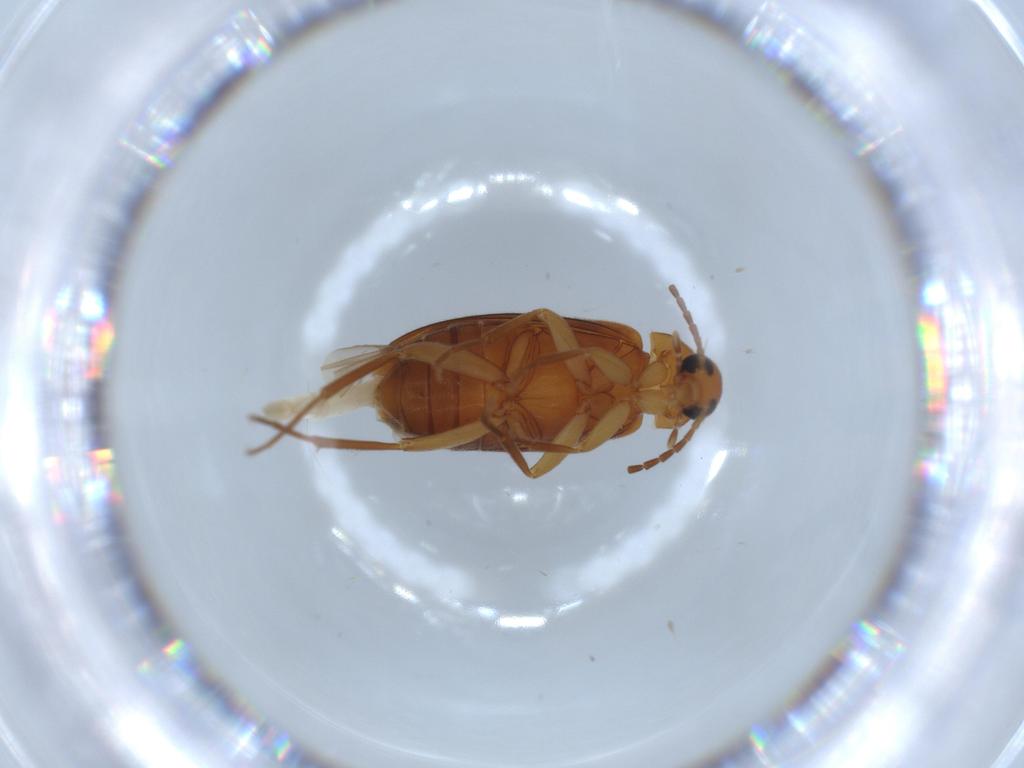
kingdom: Animalia
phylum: Arthropoda
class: Insecta
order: Coleoptera
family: Scraptiidae
